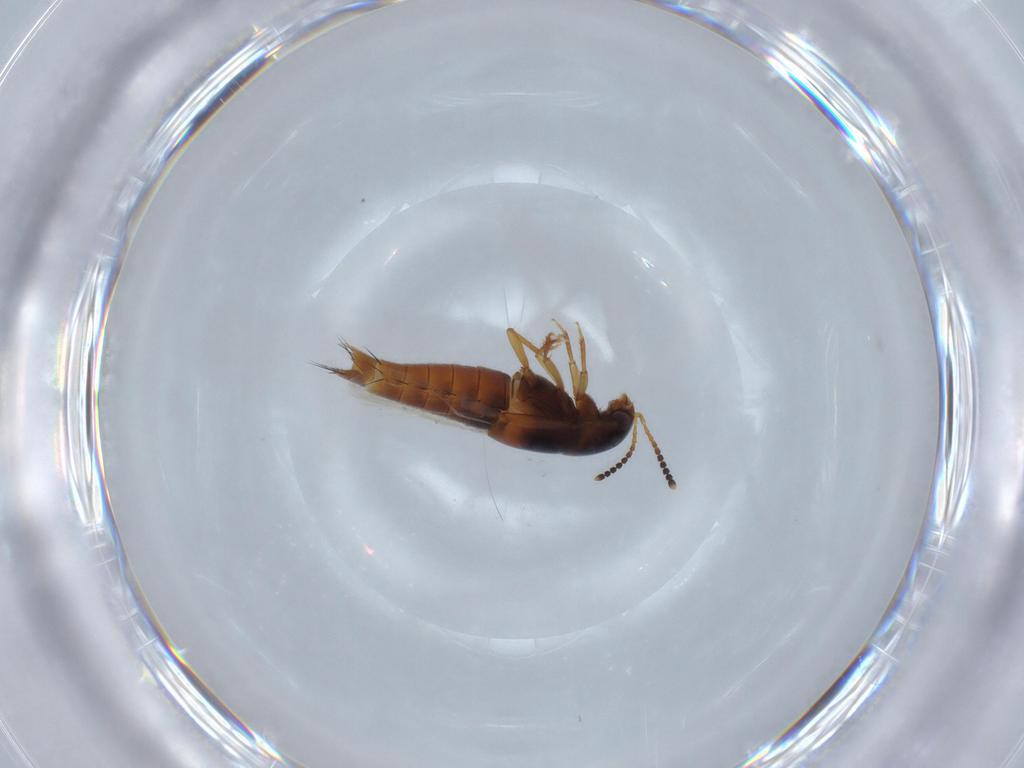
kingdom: Animalia
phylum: Arthropoda
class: Insecta
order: Coleoptera
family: Staphylinidae
